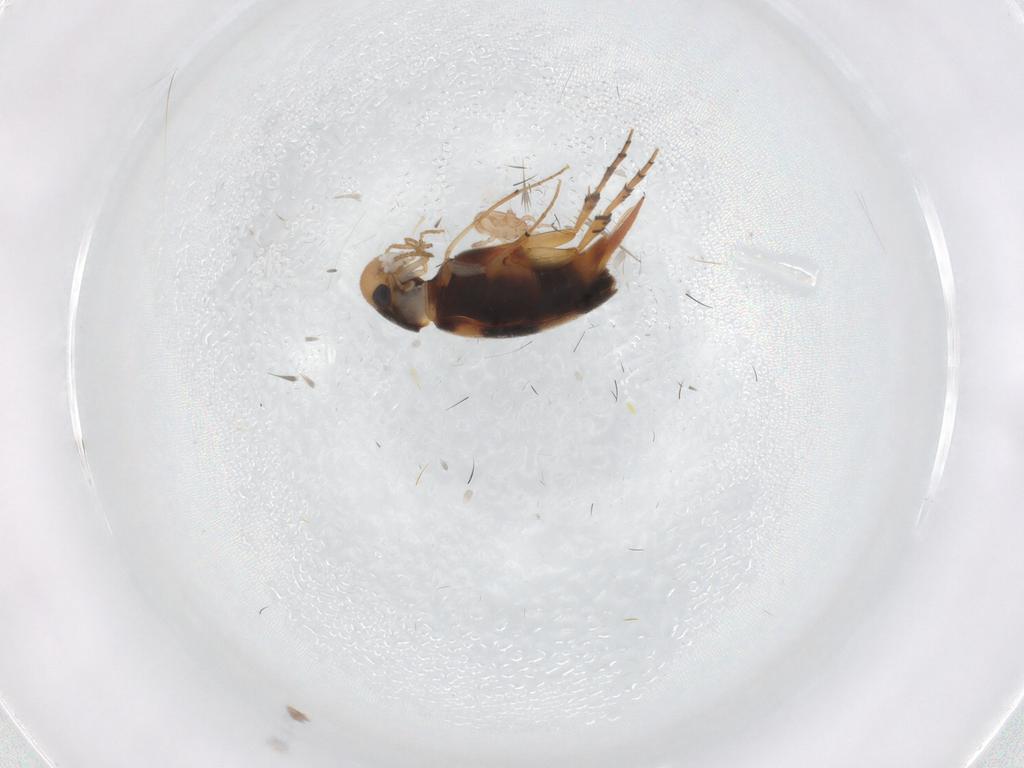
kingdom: Animalia
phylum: Arthropoda
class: Insecta
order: Coleoptera
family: Mordellidae
